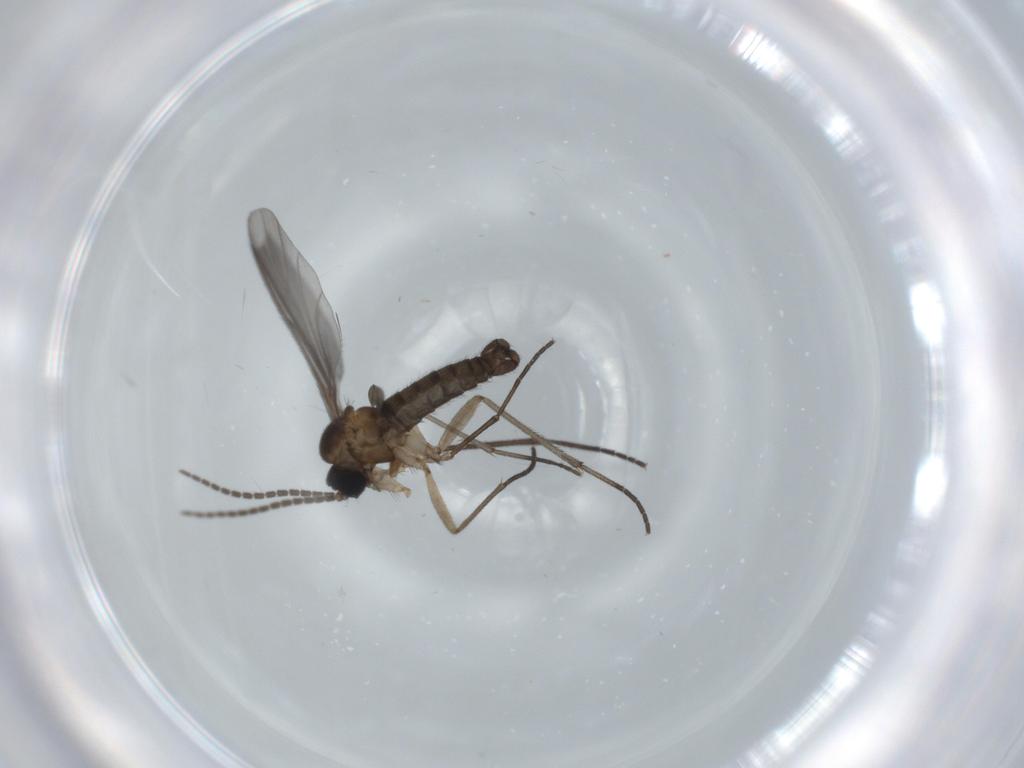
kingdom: Animalia
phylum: Arthropoda
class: Insecta
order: Diptera
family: Sciaridae
